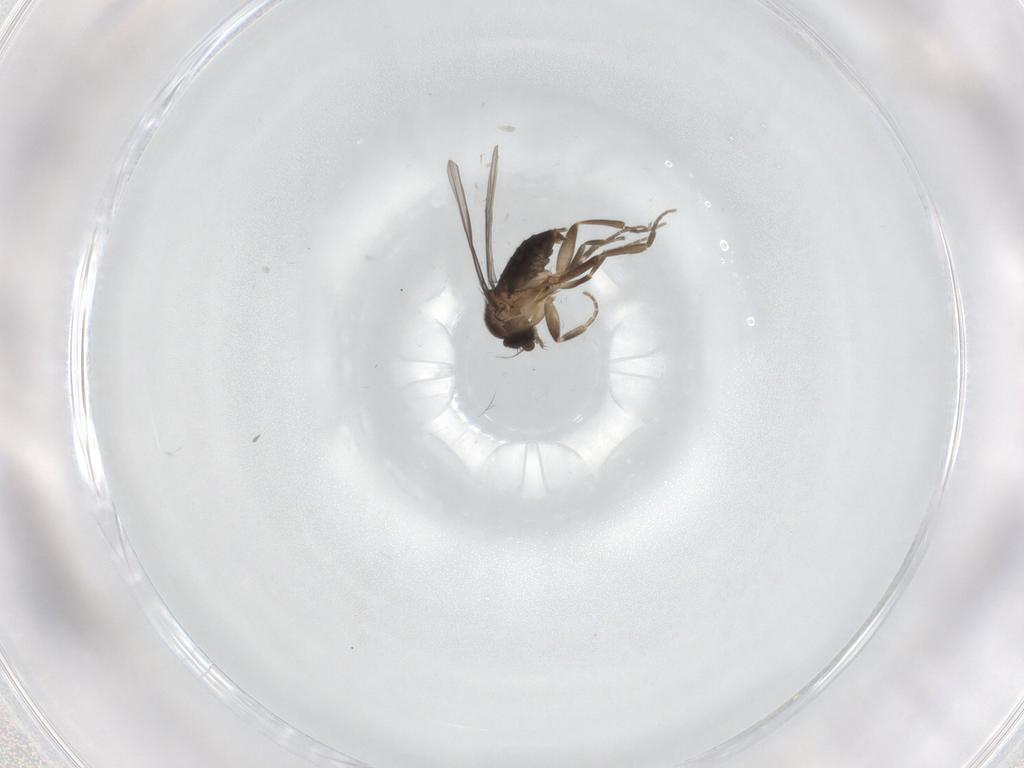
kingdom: Animalia
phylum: Arthropoda
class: Insecta
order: Diptera
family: Phoridae
